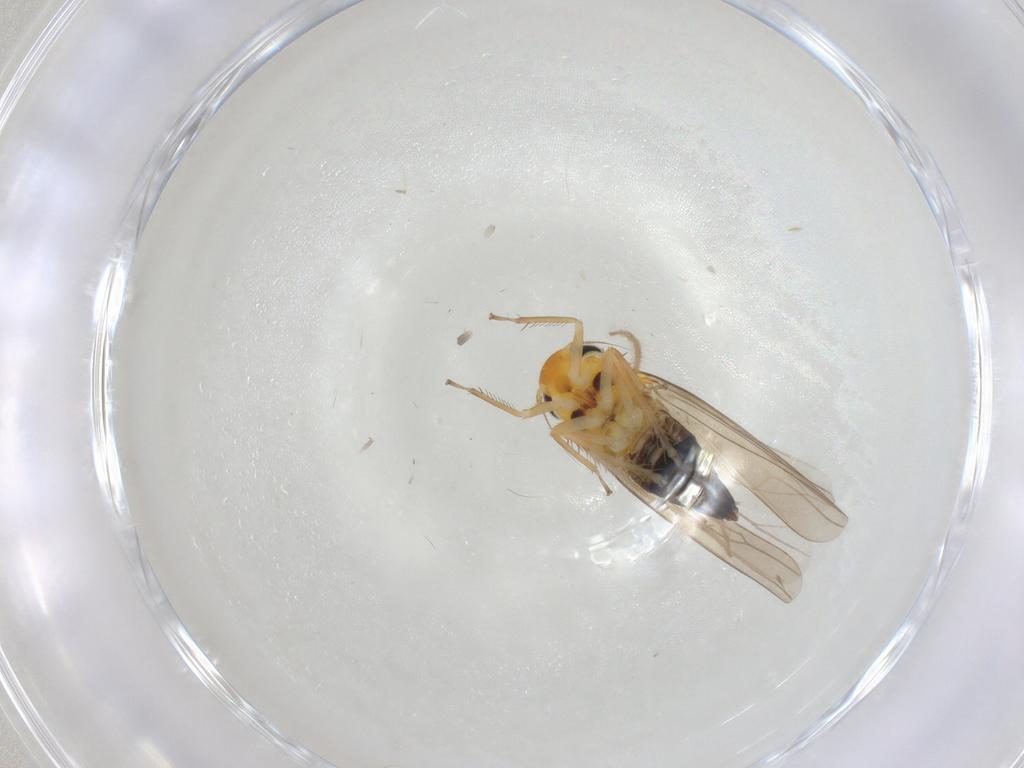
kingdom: Animalia
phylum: Arthropoda
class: Insecta
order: Hemiptera
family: Cicadellidae
